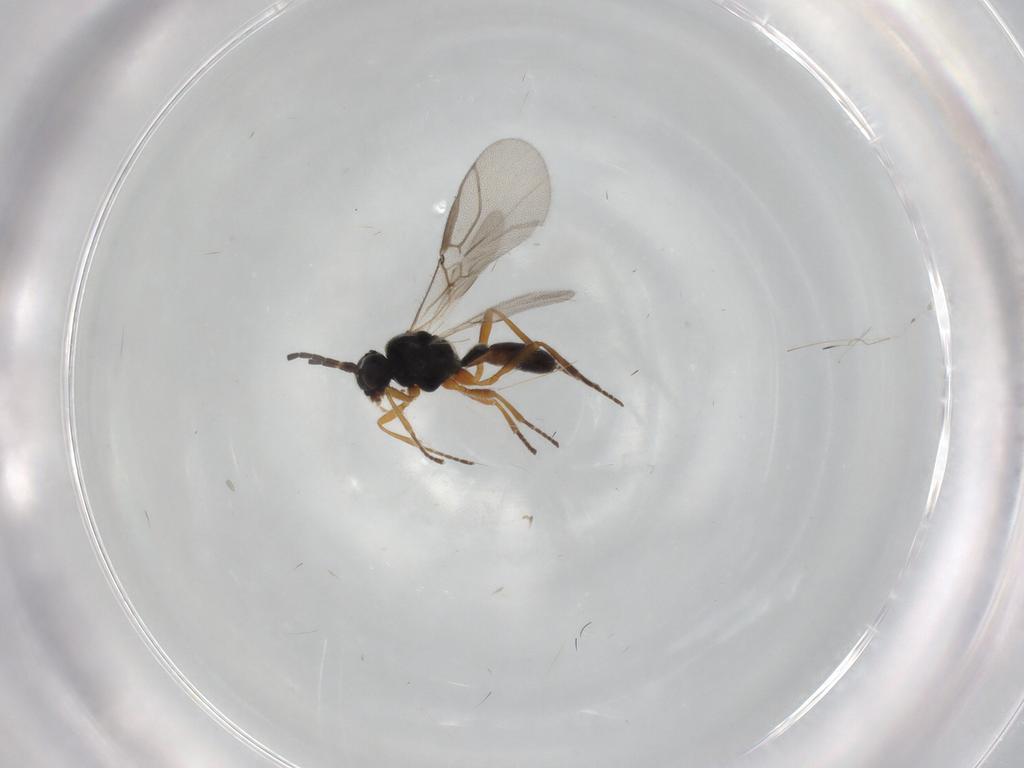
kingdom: Animalia
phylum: Arthropoda
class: Insecta
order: Hymenoptera
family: Braconidae
